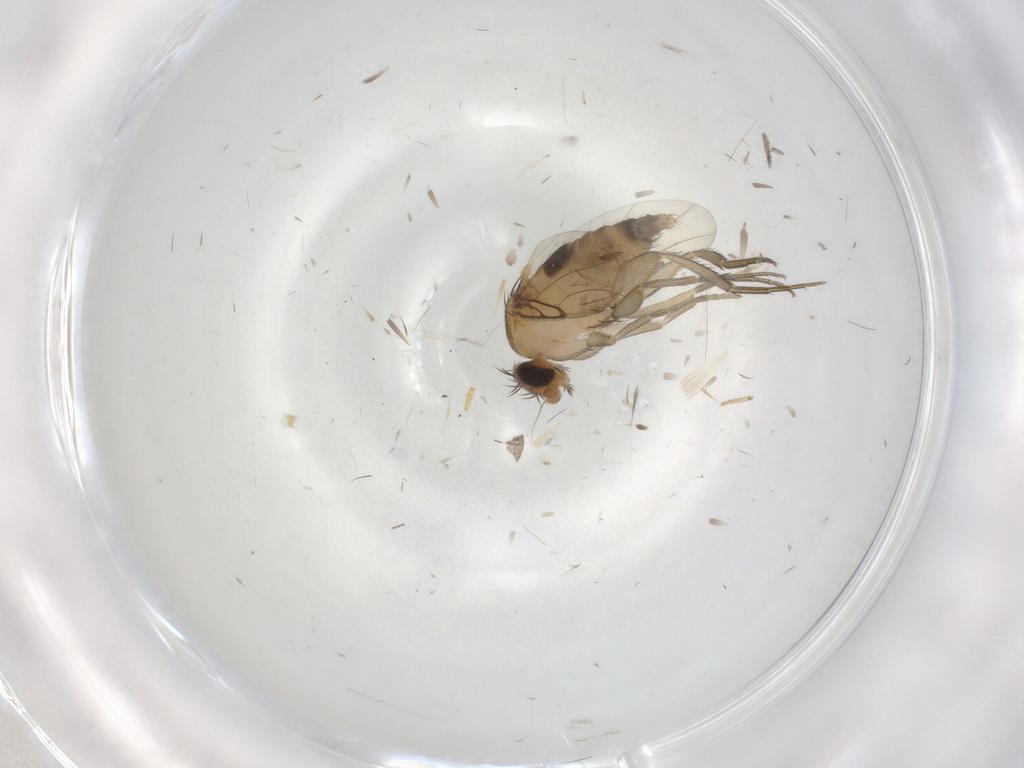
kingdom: Animalia
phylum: Arthropoda
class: Insecta
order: Diptera
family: Phoridae
